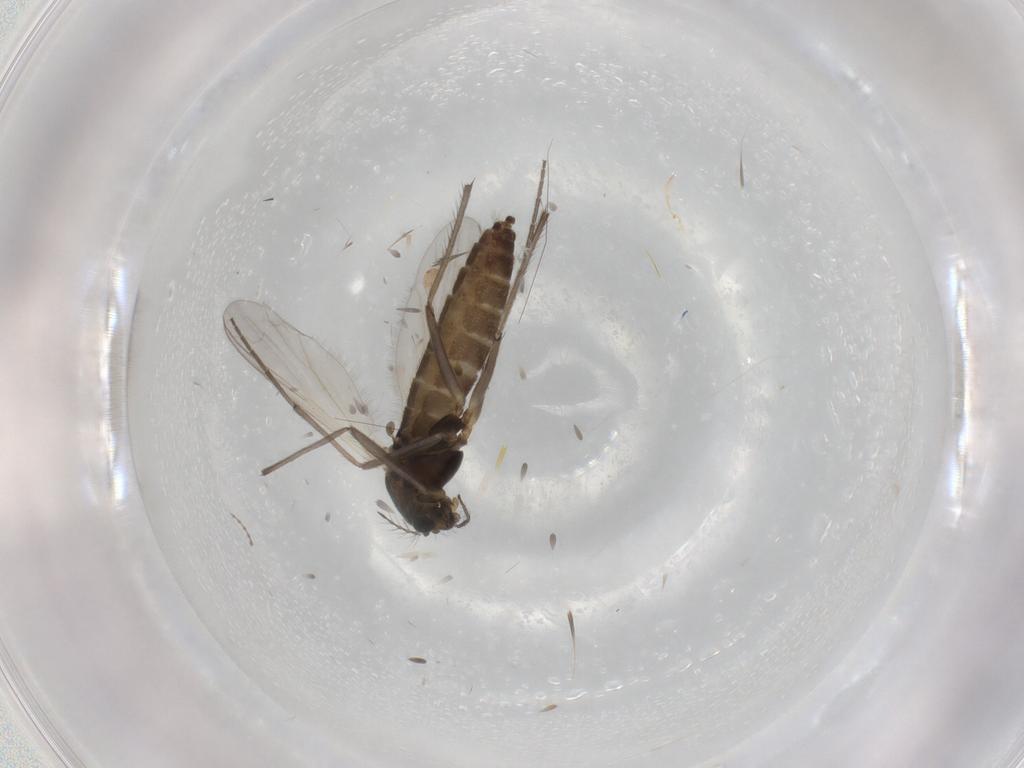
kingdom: Animalia
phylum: Arthropoda
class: Insecta
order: Diptera
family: Chironomidae
